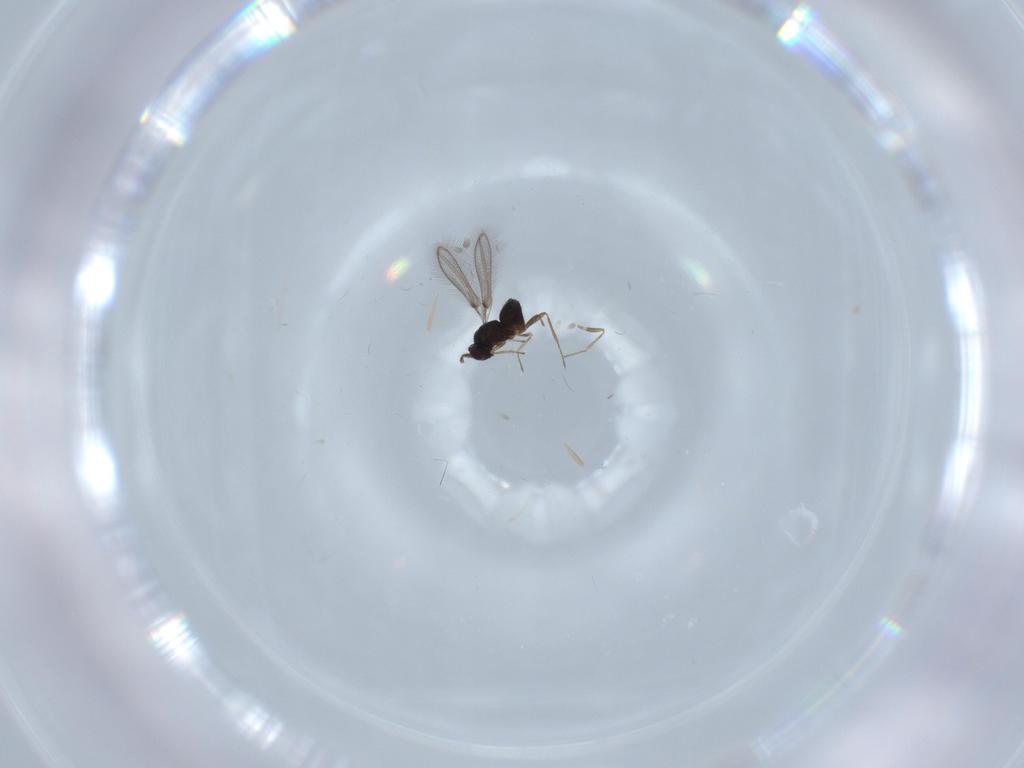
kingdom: Animalia
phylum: Arthropoda
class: Insecta
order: Hymenoptera
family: Mymaridae
